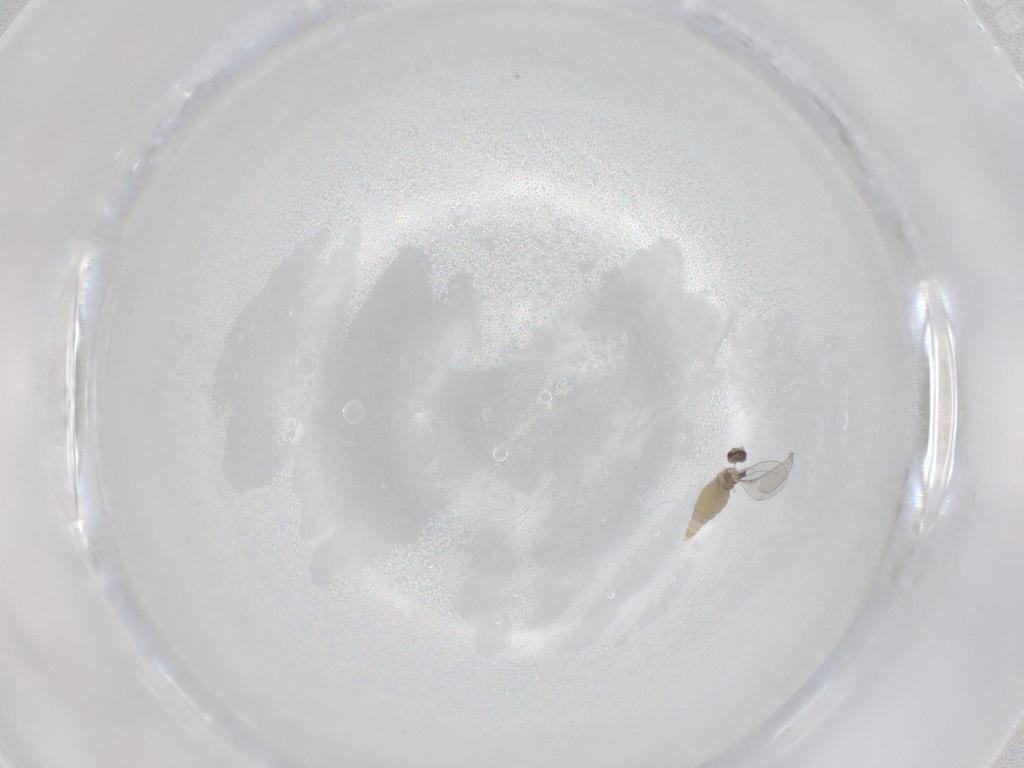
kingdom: Animalia
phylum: Arthropoda
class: Insecta
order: Diptera
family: Cecidomyiidae
